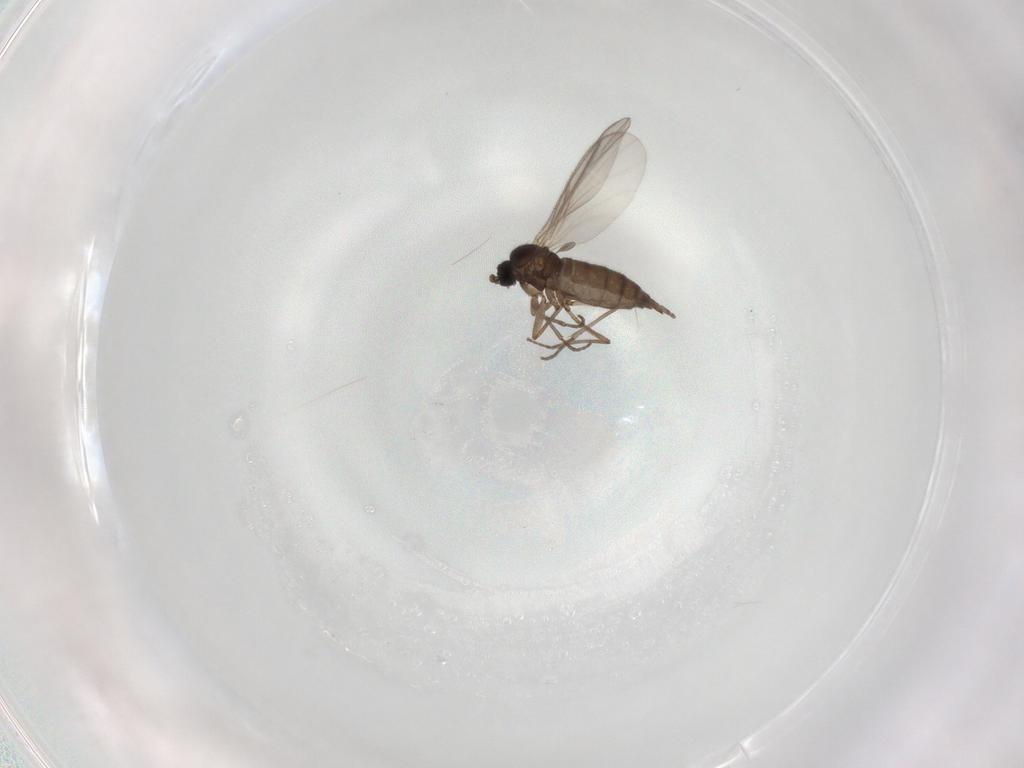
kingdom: Animalia
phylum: Arthropoda
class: Insecta
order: Diptera
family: Sciaridae
